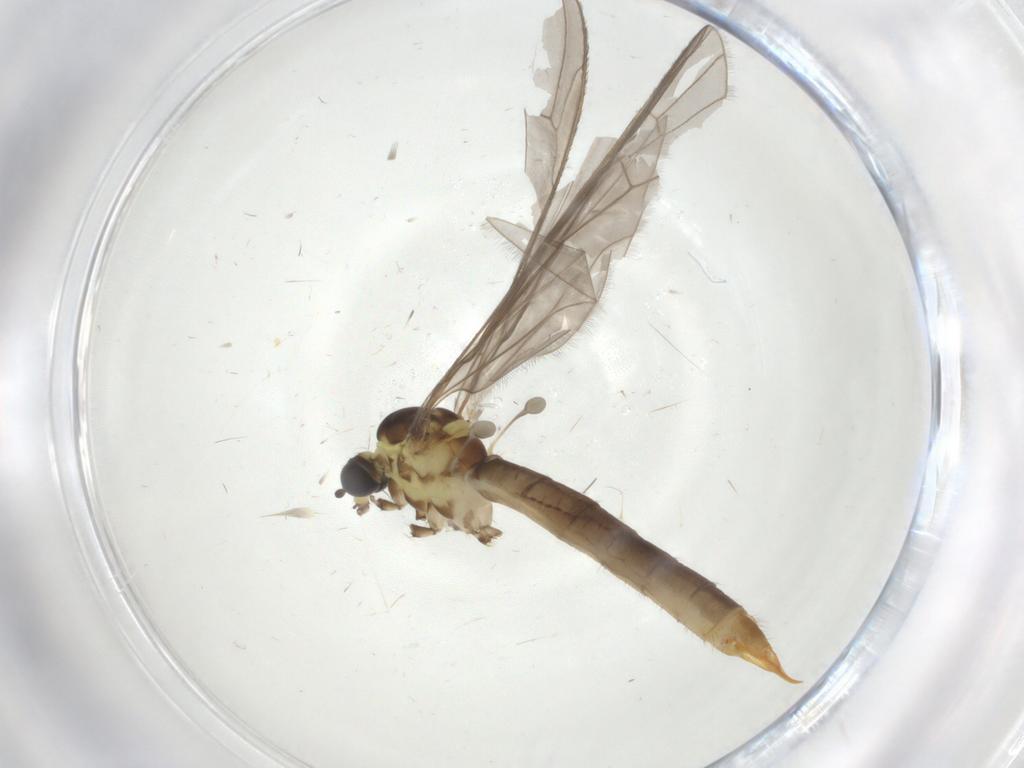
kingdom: Animalia
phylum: Arthropoda
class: Insecta
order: Diptera
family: Limoniidae
